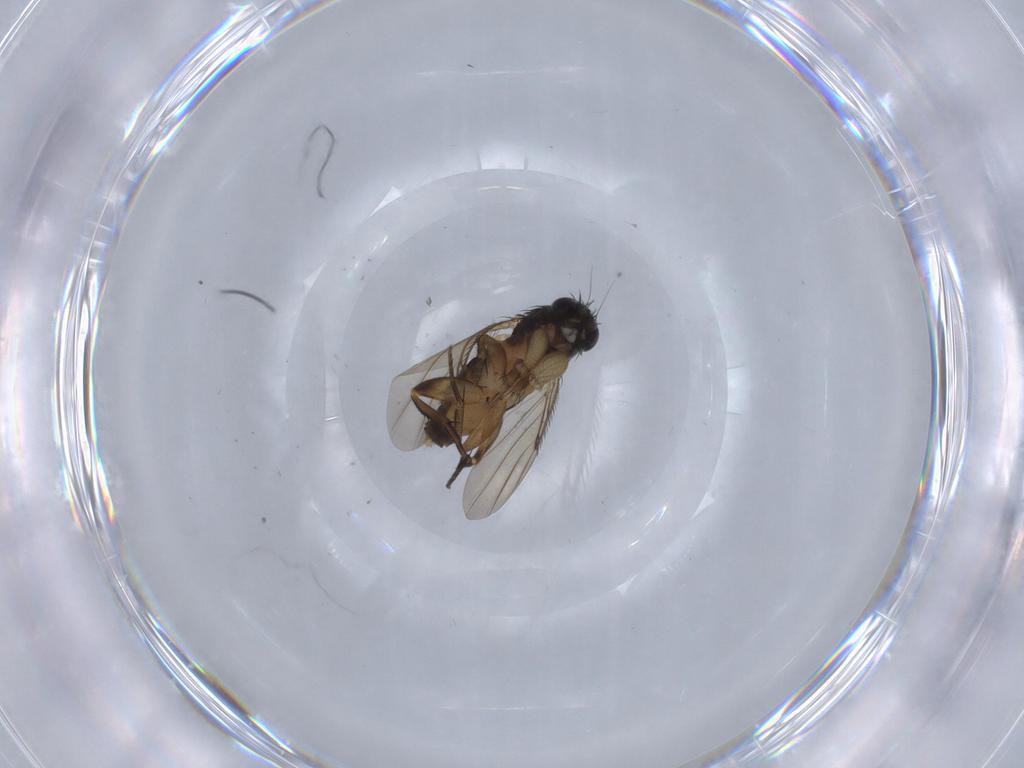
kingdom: Animalia
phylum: Arthropoda
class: Insecta
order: Diptera
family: Phoridae
